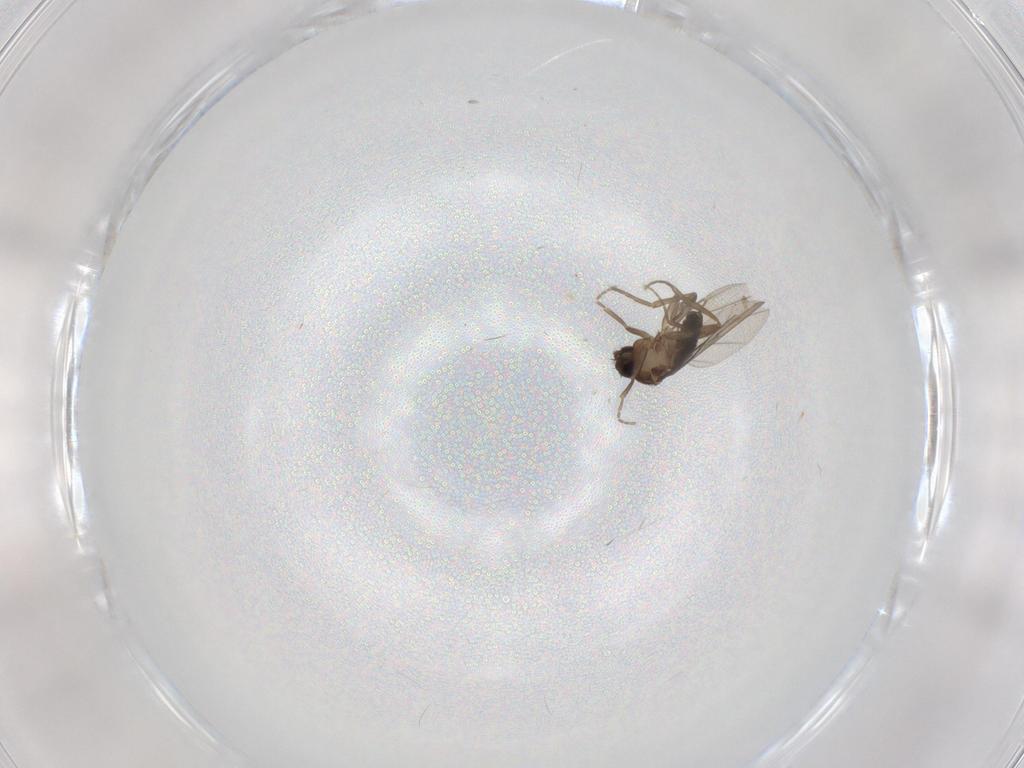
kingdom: Animalia
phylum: Arthropoda
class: Insecta
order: Diptera
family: Phoridae
